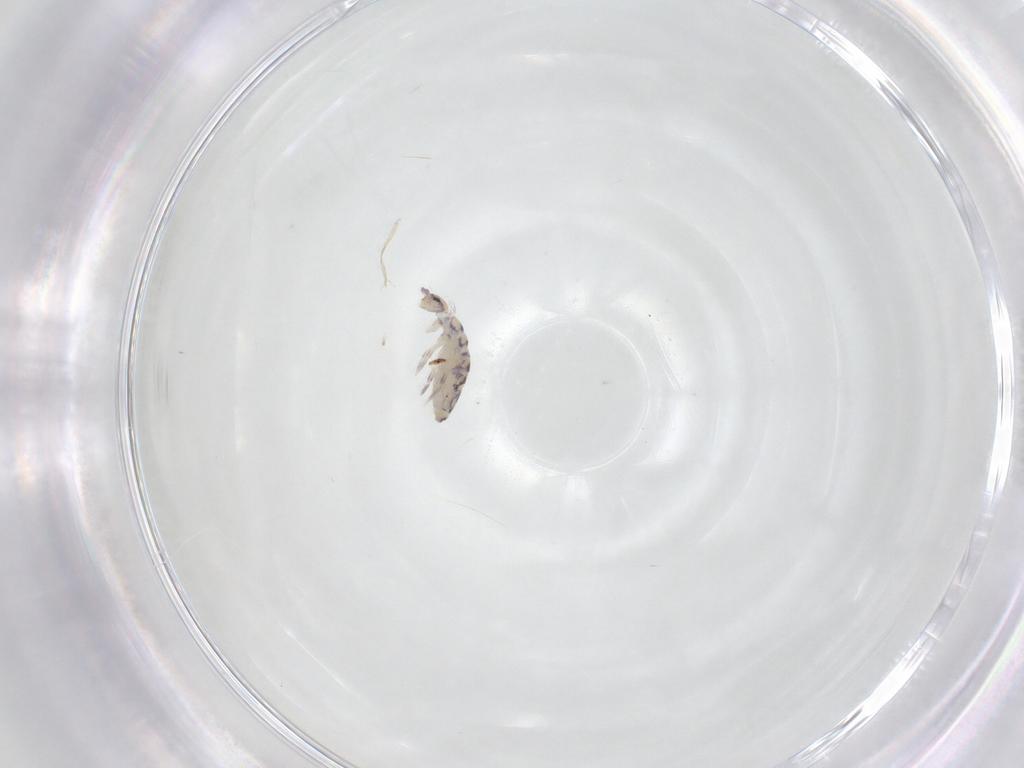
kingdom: Animalia
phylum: Arthropoda
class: Collembola
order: Entomobryomorpha
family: Entomobryidae
